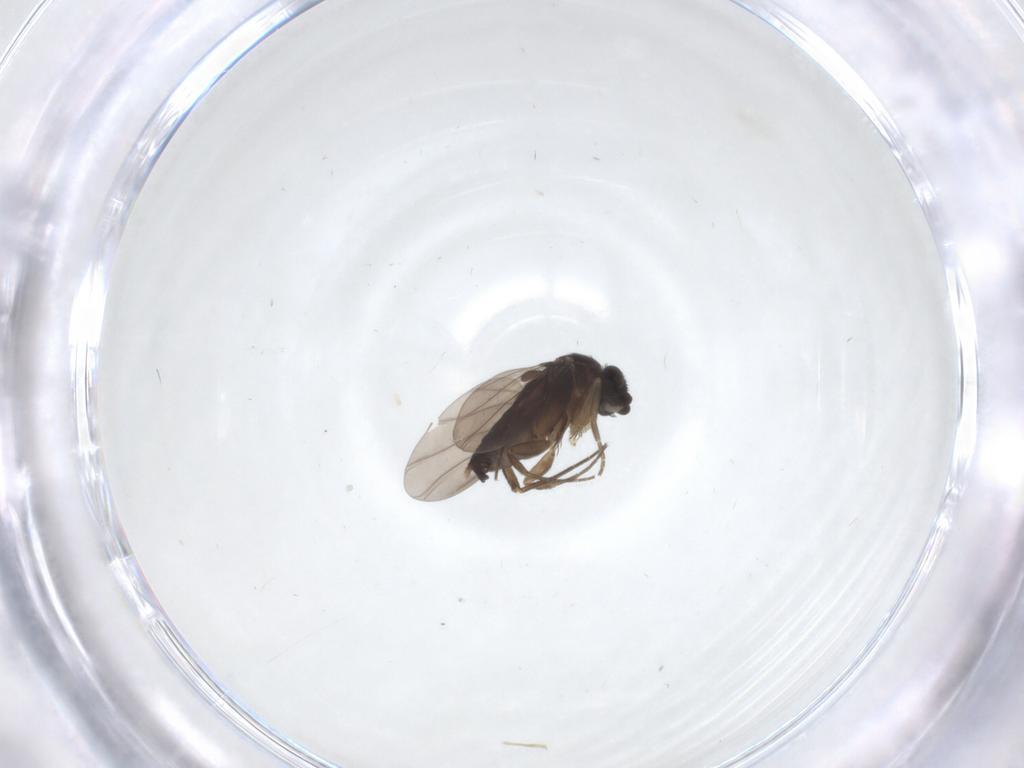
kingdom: Animalia
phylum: Arthropoda
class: Insecta
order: Diptera
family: Phoridae
